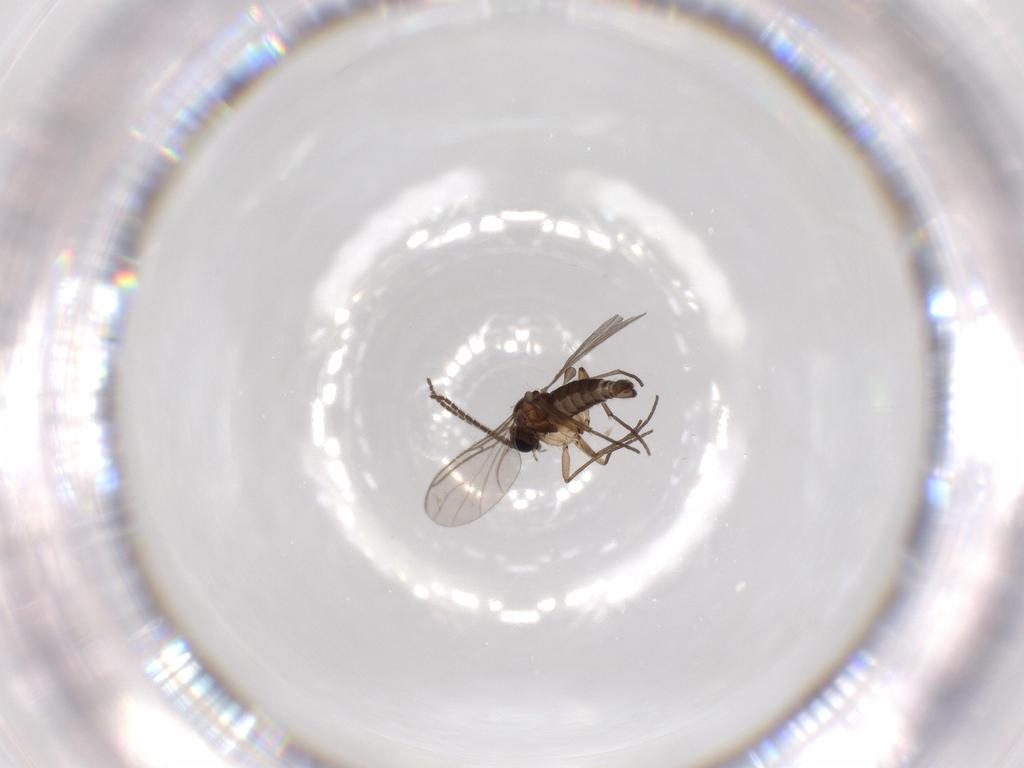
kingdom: Animalia
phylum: Arthropoda
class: Insecta
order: Diptera
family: Sciaridae
